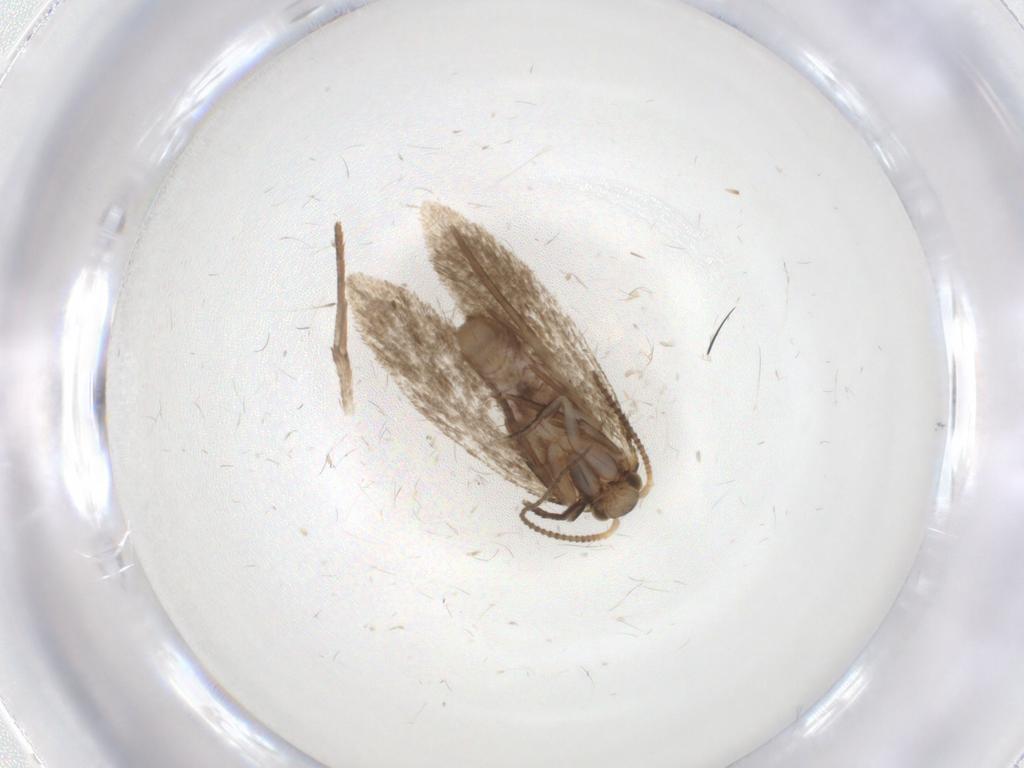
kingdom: Animalia
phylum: Arthropoda
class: Insecta
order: Lepidoptera
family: Dryadaulidae
